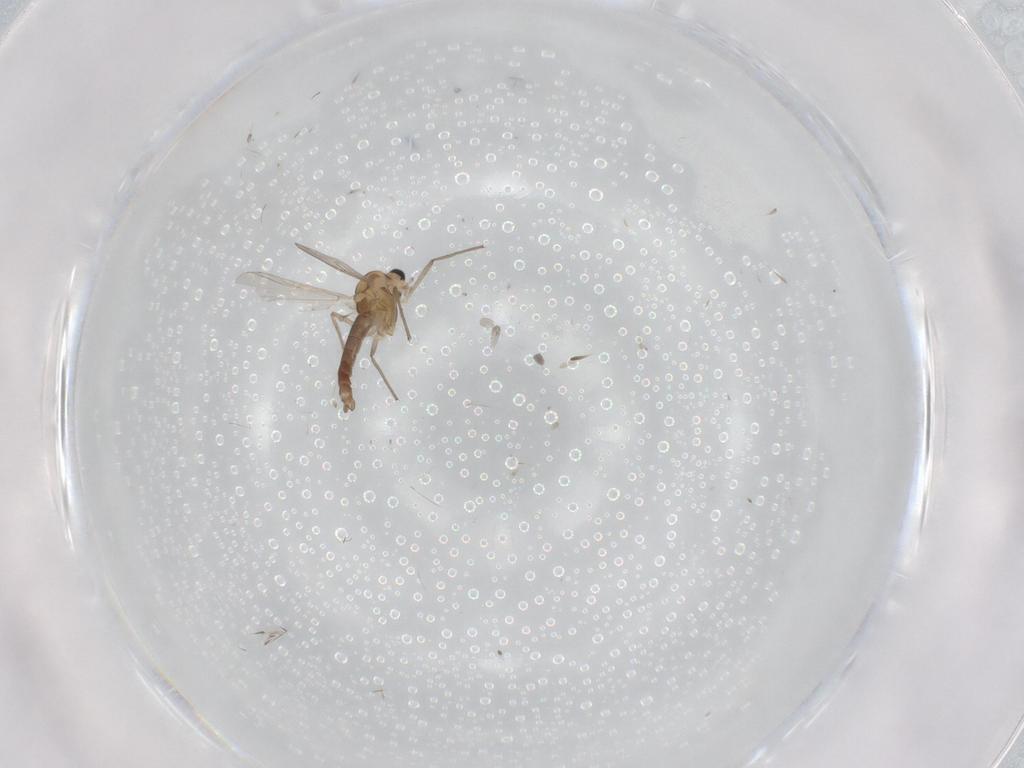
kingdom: Animalia
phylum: Arthropoda
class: Insecta
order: Diptera
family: Chironomidae
